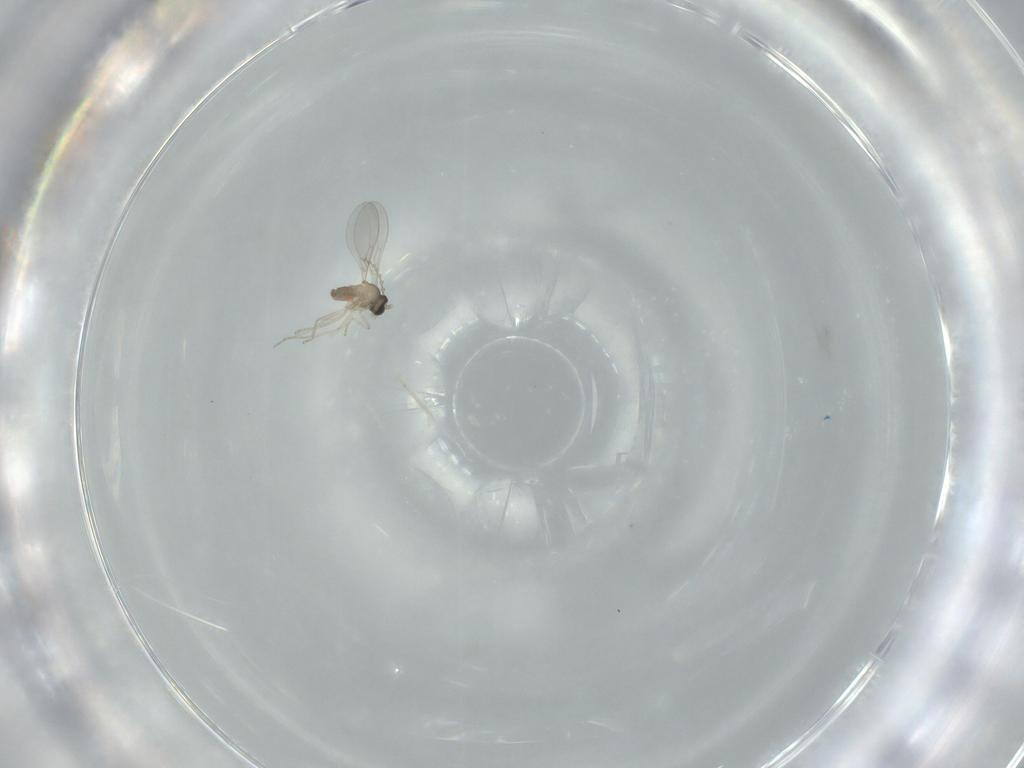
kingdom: Animalia
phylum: Arthropoda
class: Insecta
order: Diptera
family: Cecidomyiidae
